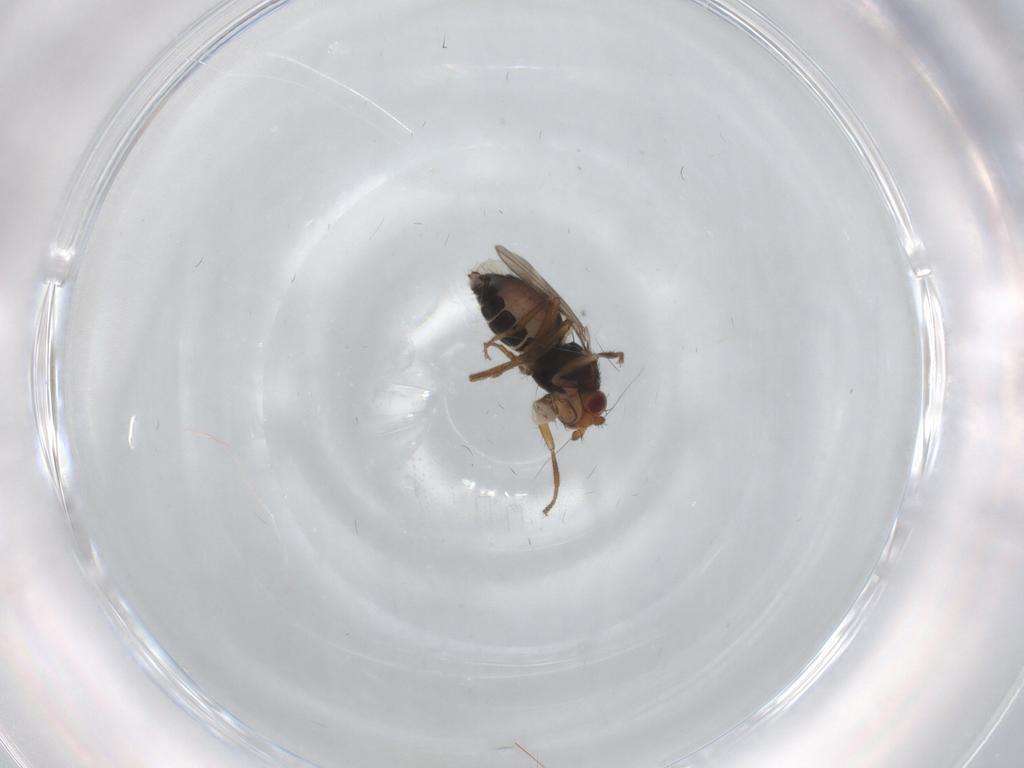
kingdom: Animalia
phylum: Arthropoda
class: Insecta
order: Diptera
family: Sphaeroceridae
